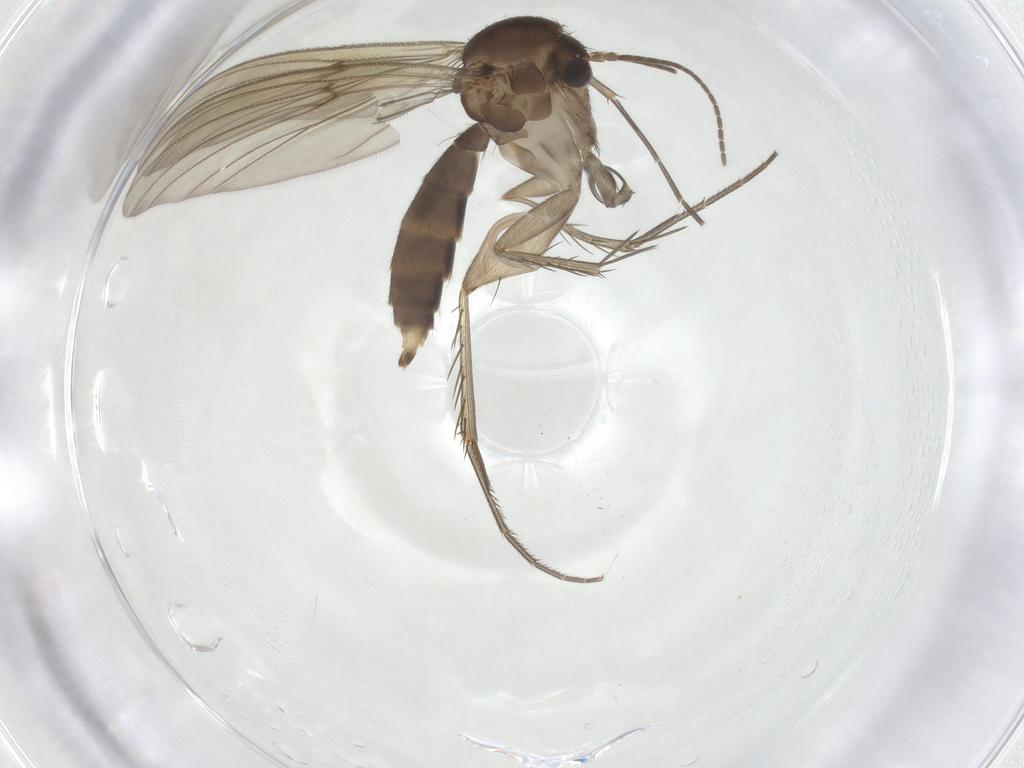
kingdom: Animalia
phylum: Arthropoda
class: Insecta
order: Diptera
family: Mycetophilidae
